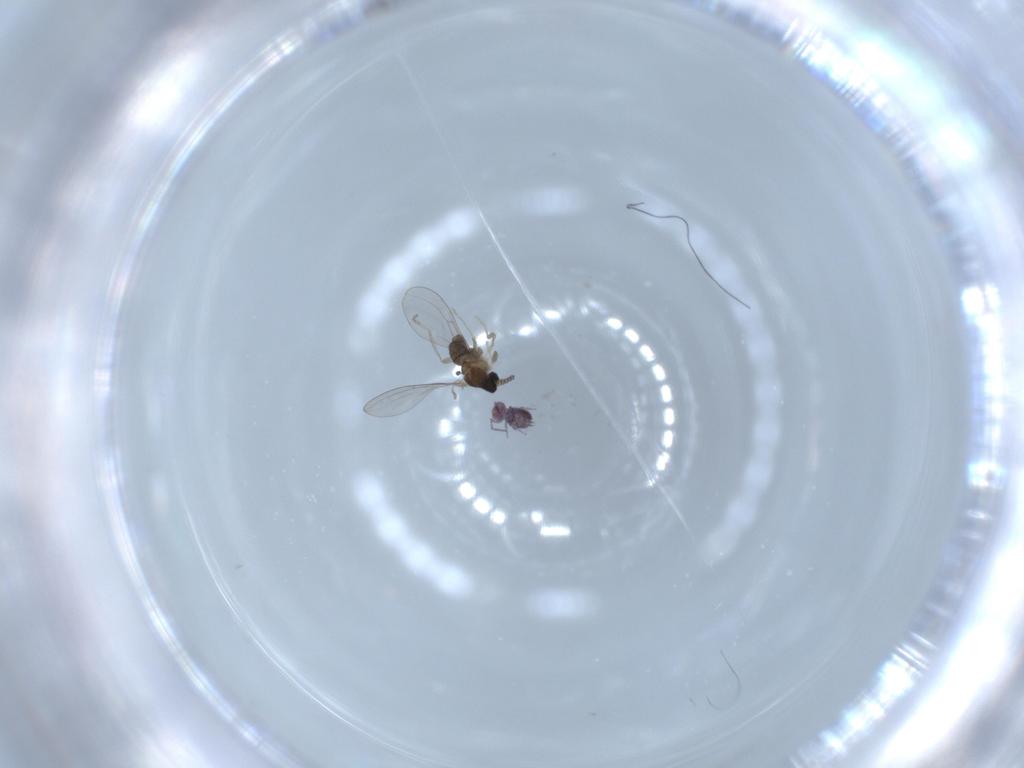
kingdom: Animalia
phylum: Arthropoda
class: Insecta
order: Diptera
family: Cecidomyiidae
